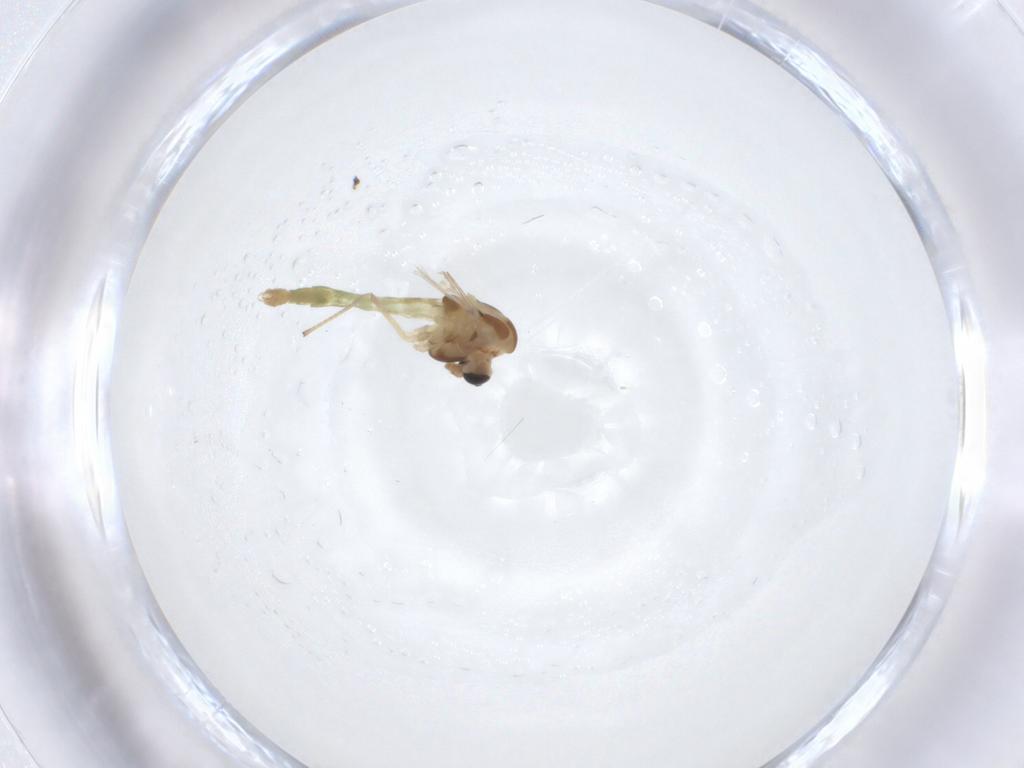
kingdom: Animalia
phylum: Arthropoda
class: Insecta
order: Diptera
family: Chironomidae
